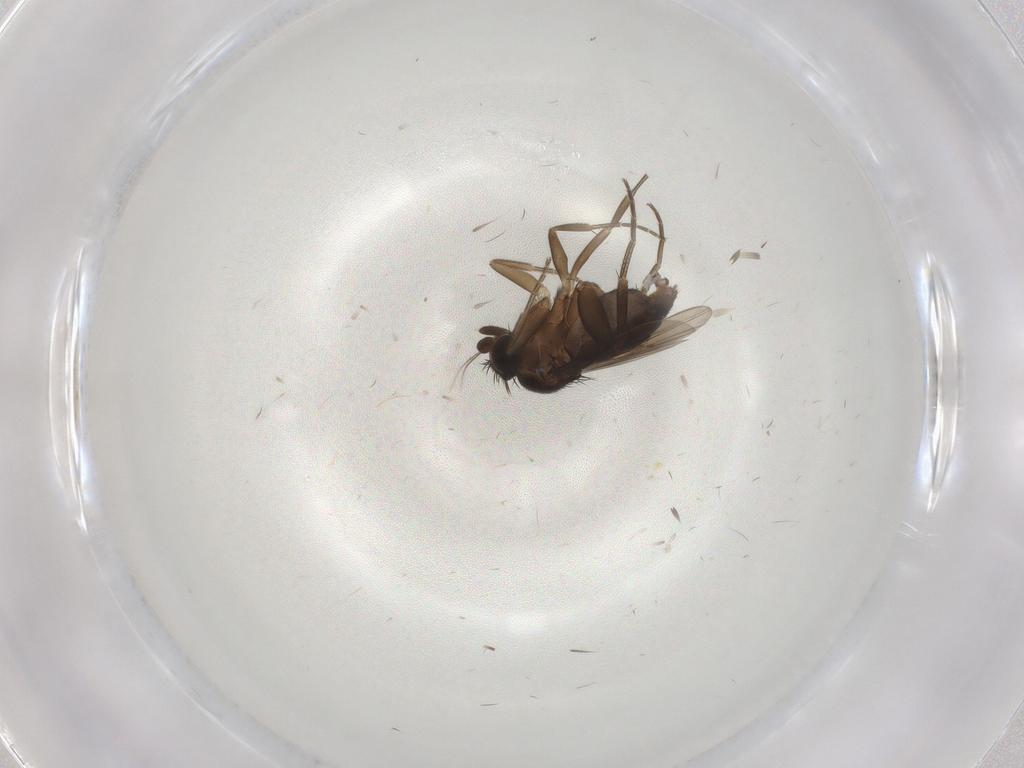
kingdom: Animalia
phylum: Arthropoda
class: Insecta
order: Diptera
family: Phoridae
